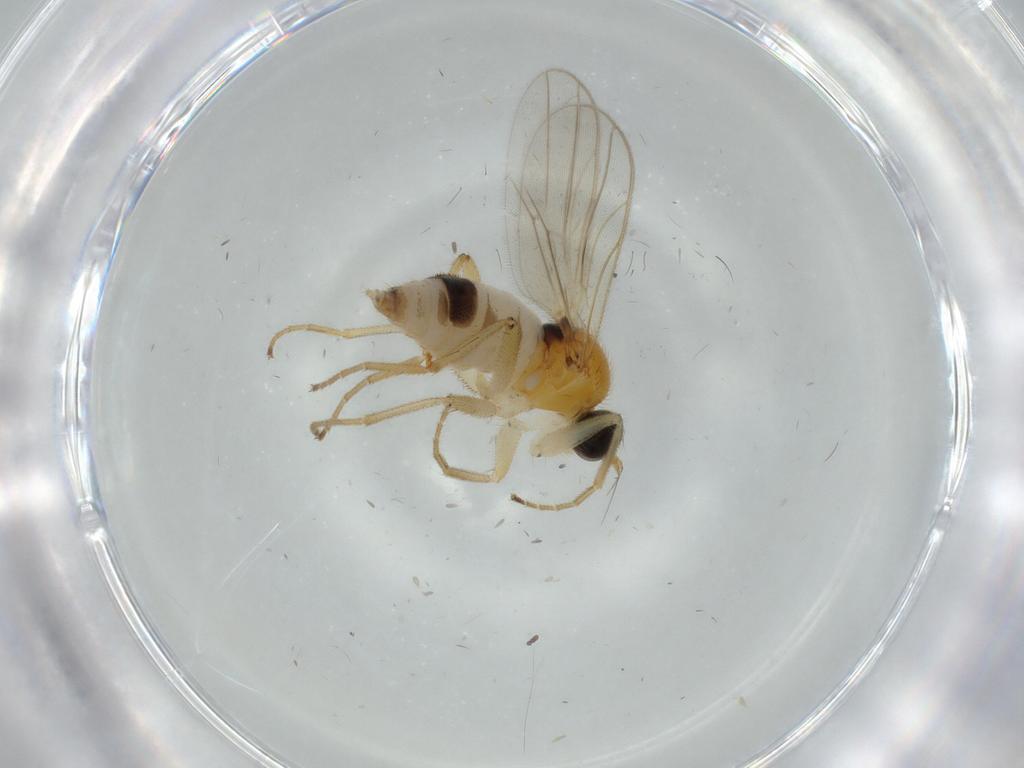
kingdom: Animalia
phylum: Arthropoda
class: Insecta
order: Diptera
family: Hybotidae
